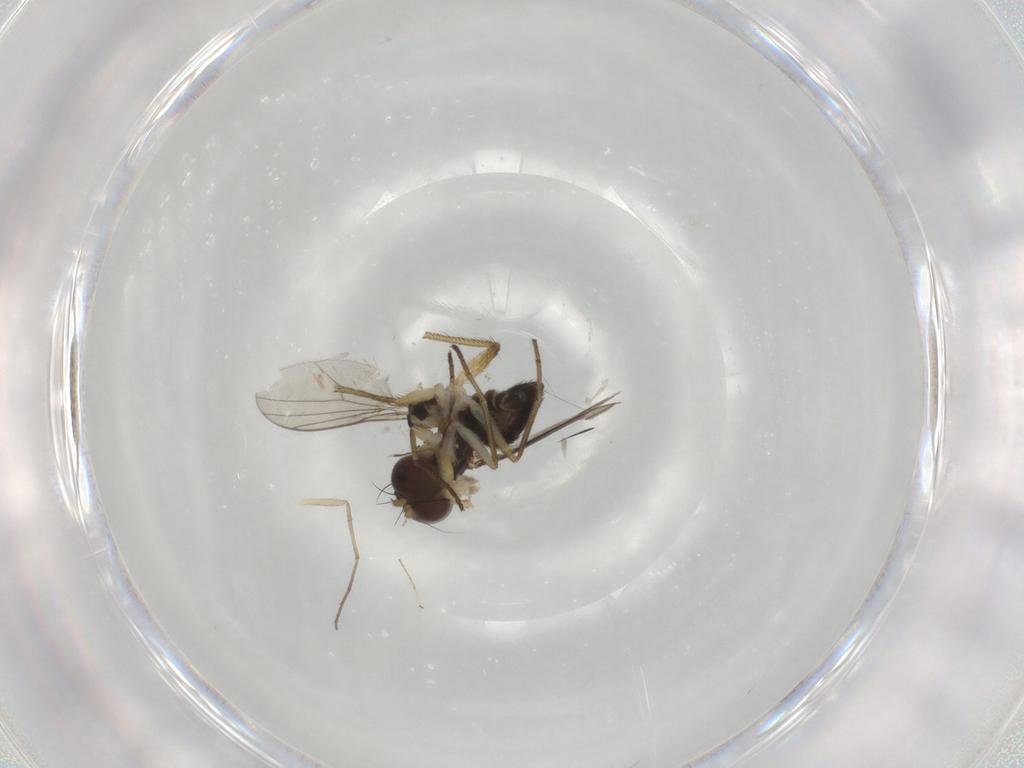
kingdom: Animalia
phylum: Arthropoda
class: Insecta
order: Diptera
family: Dolichopodidae
